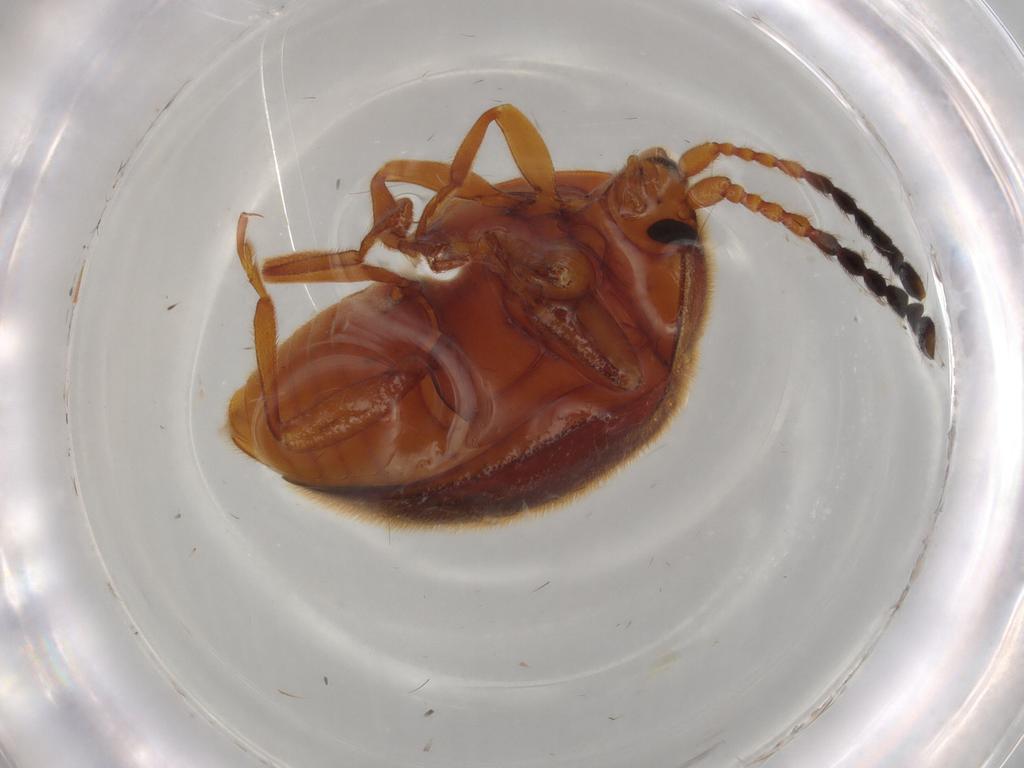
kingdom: Animalia
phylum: Arthropoda
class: Insecta
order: Coleoptera
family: Endomychidae
